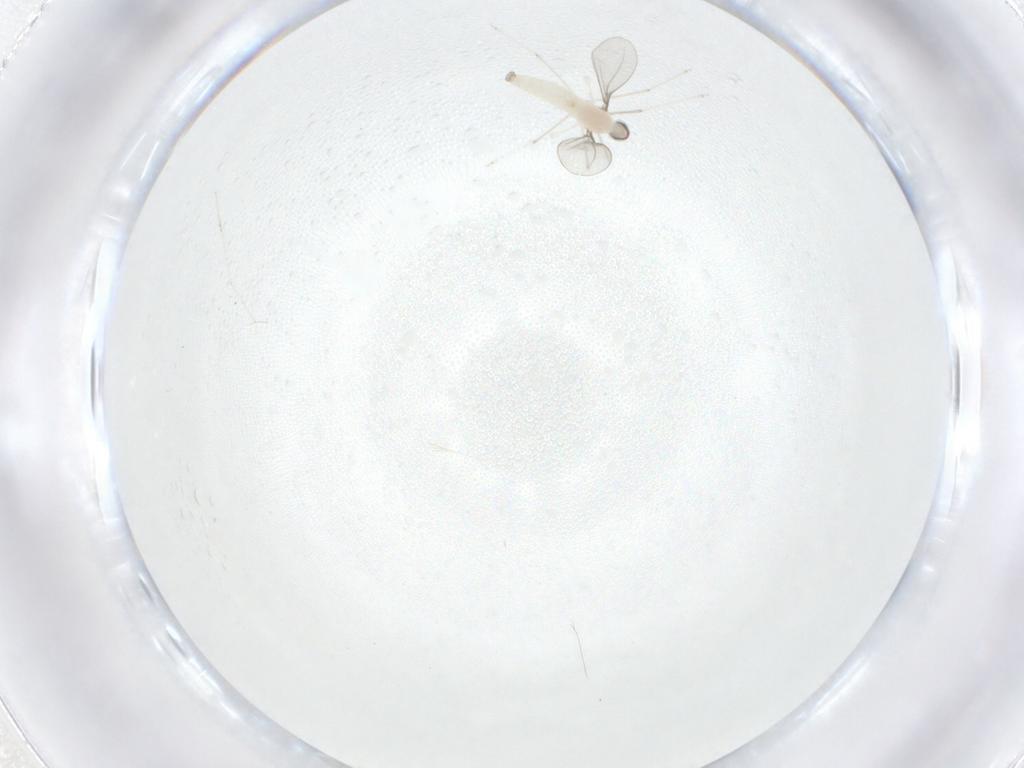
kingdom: Animalia
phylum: Arthropoda
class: Insecta
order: Diptera
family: Cecidomyiidae
